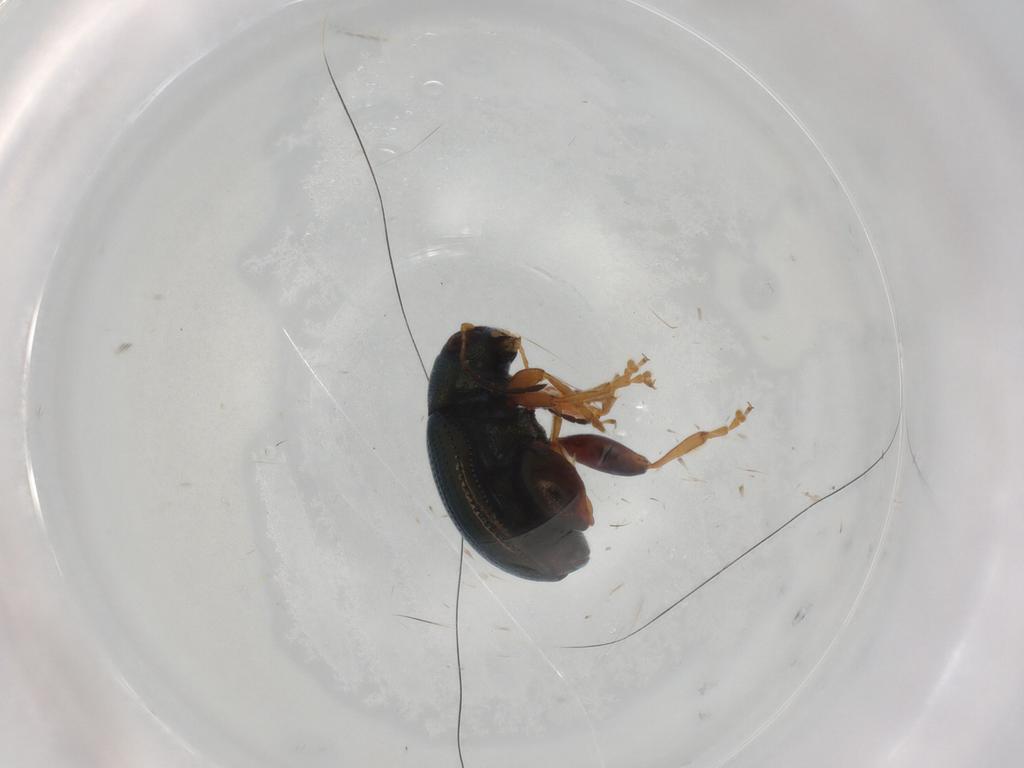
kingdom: Animalia
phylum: Arthropoda
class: Insecta
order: Coleoptera
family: Chrysomelidae
